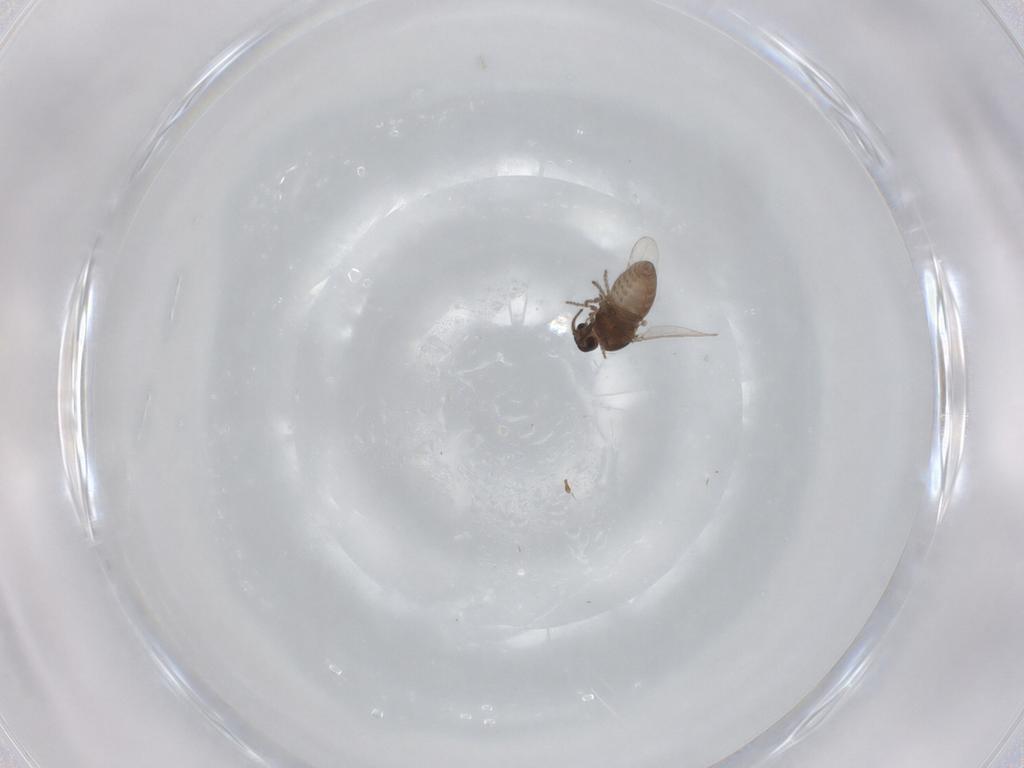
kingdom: Animalia
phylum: Arthropoda
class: Insecta
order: Diptera
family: Ceratopogonidae
